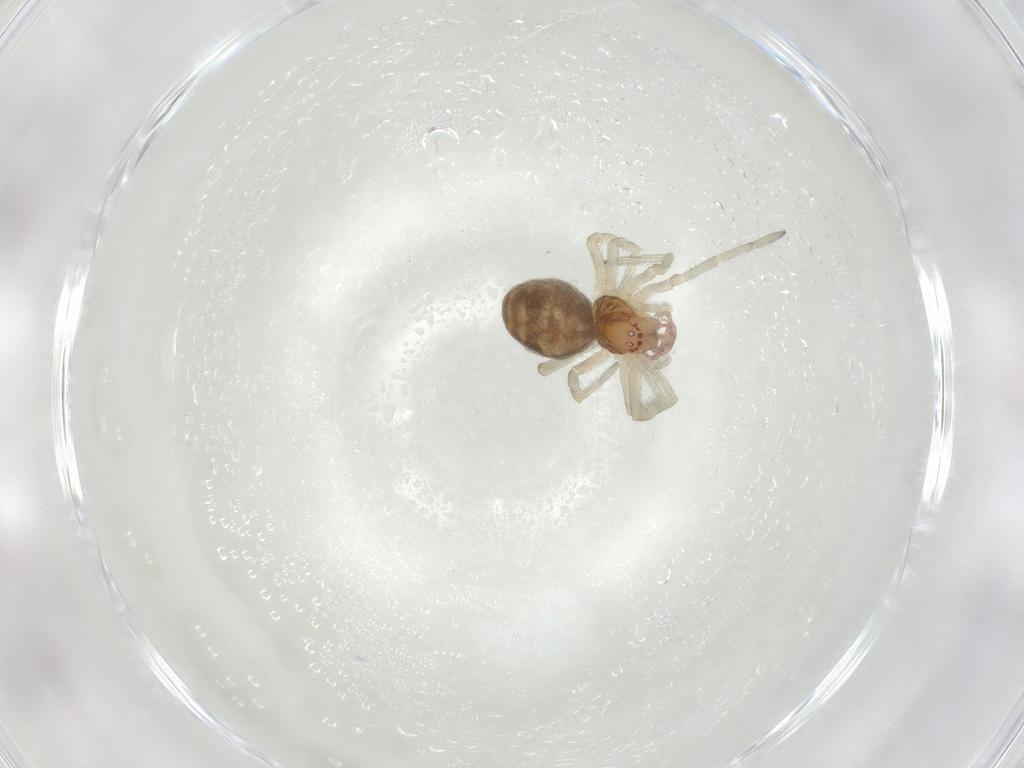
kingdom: Animalia
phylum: Arthropoda
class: Arachnida
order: Araneae
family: Dictynidae
